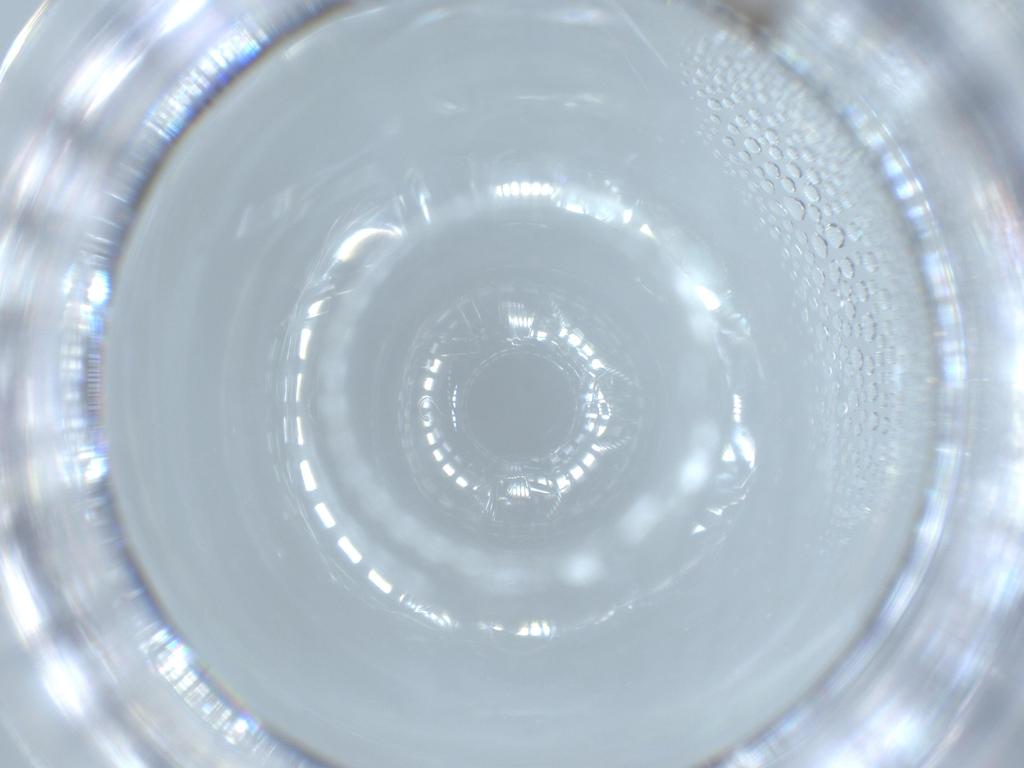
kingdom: Animalia
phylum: Arthropoda
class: Insecta
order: Diptera
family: Cecidomyiidae
